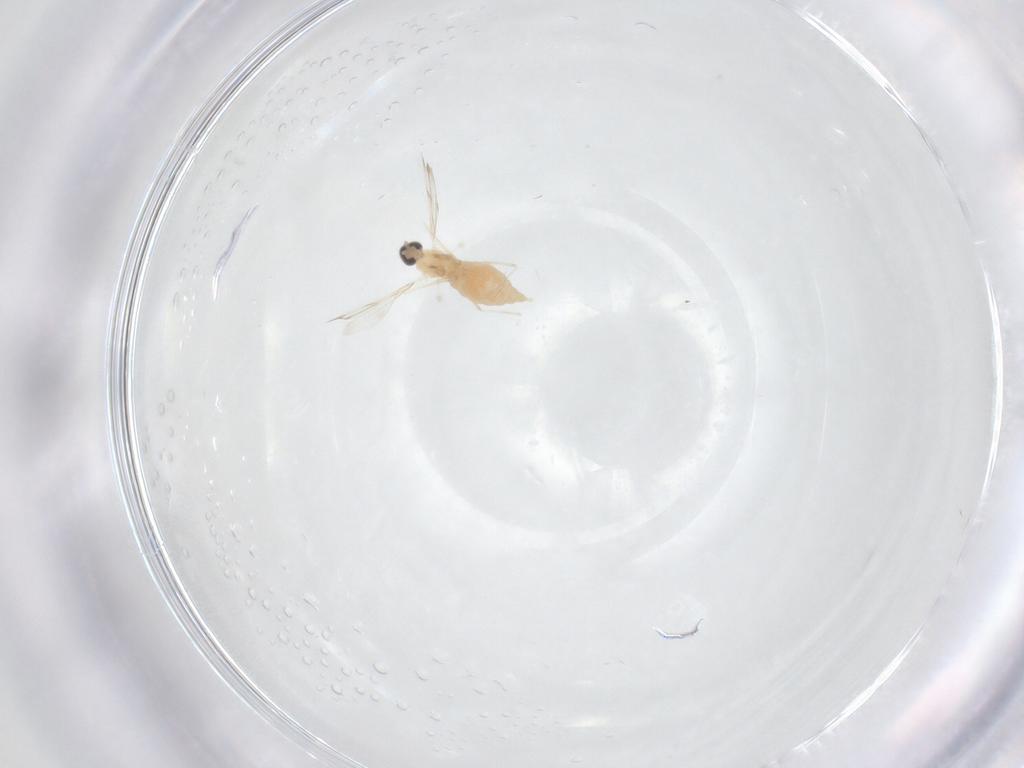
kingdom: Animalia
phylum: Arthropoda
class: Insecta
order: Diptera
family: Cecidomyiidae
